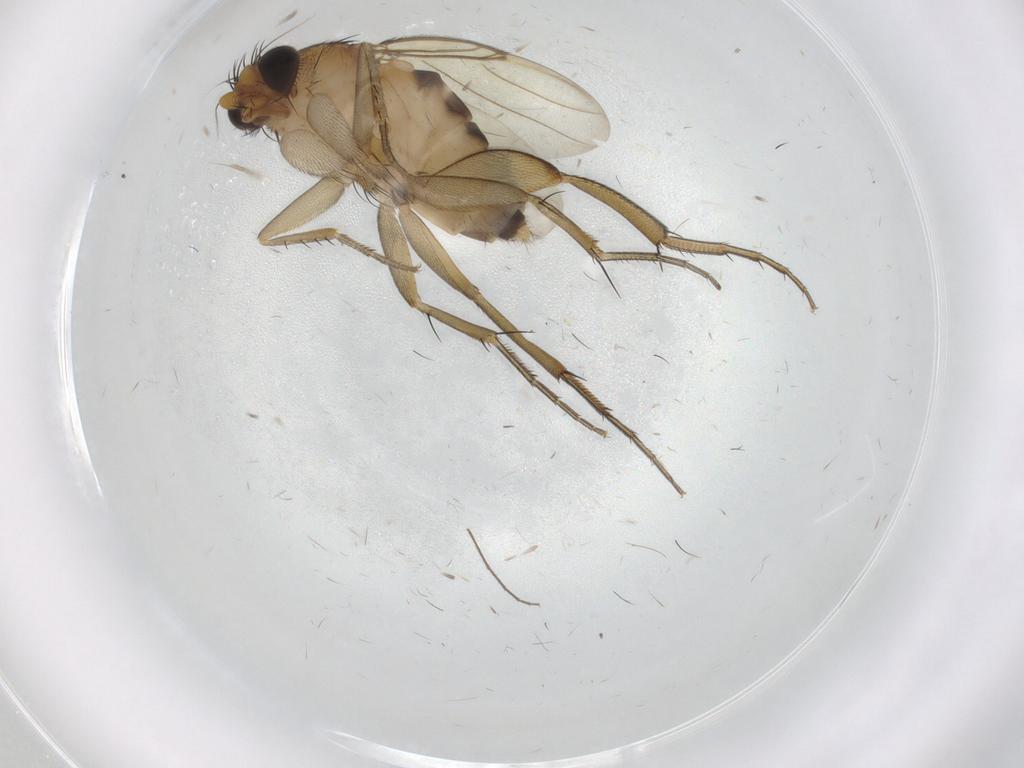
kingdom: Animalia
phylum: Arthropoda
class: Insecta
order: Diptera
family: Phoridae
